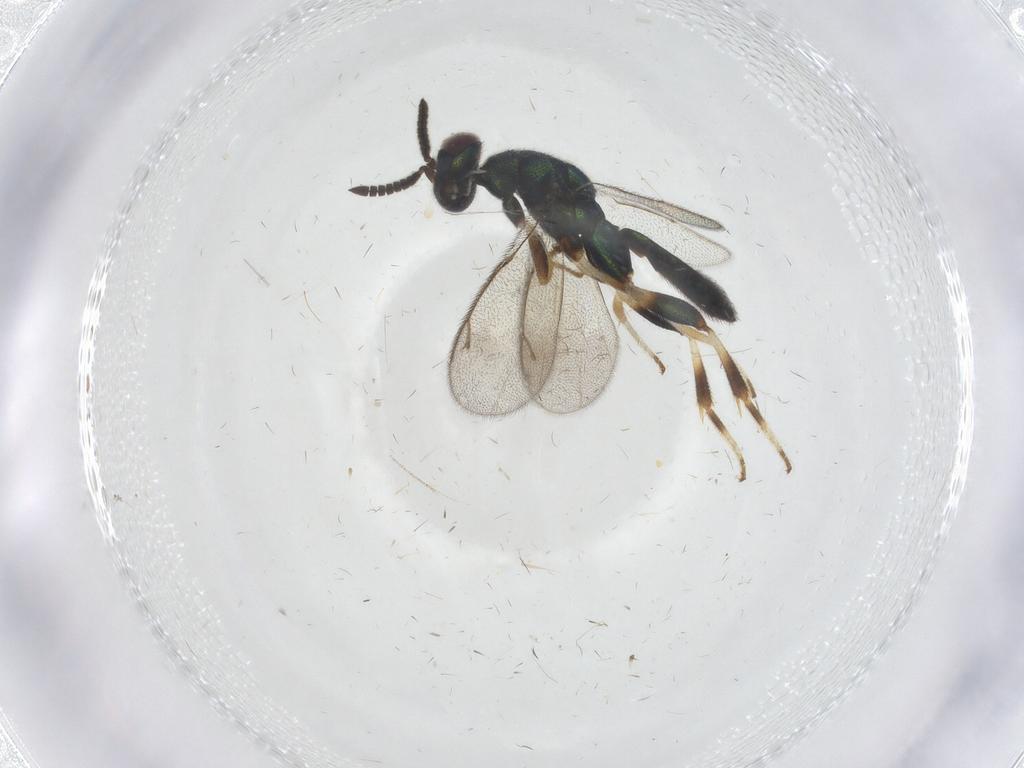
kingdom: Animalia
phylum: Arthropoda
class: Insecta
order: Hymenoptera
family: Cleonyminae
